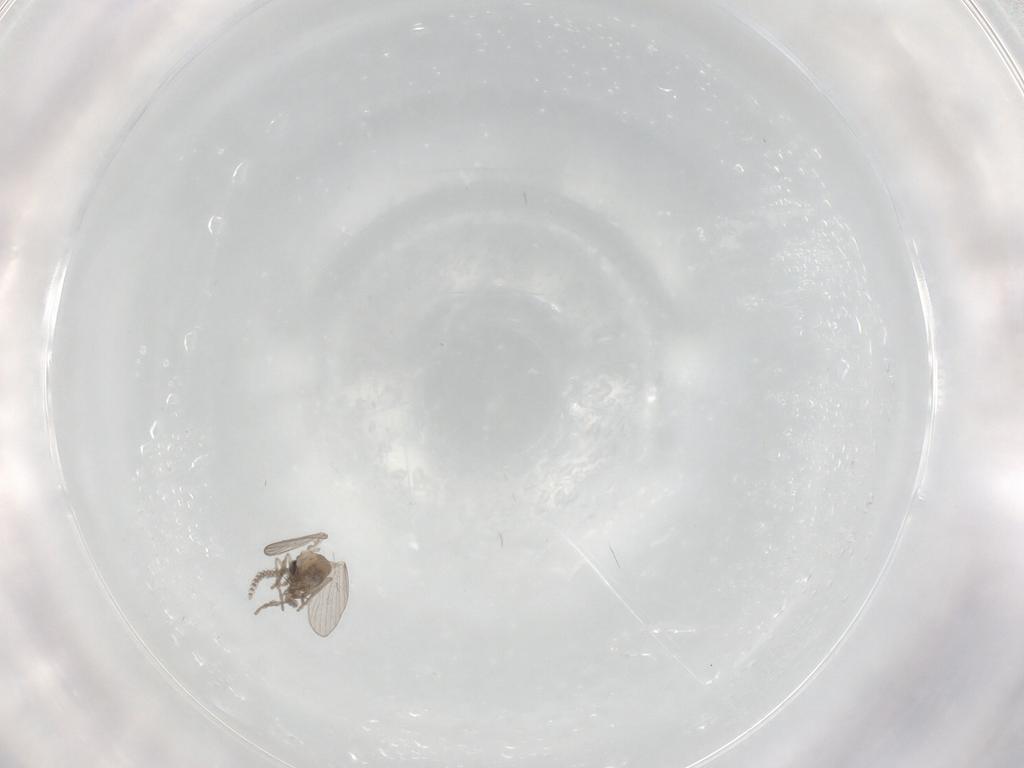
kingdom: Animalia
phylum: Arthropoda
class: Insecta
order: Diptera
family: Psychodidae
